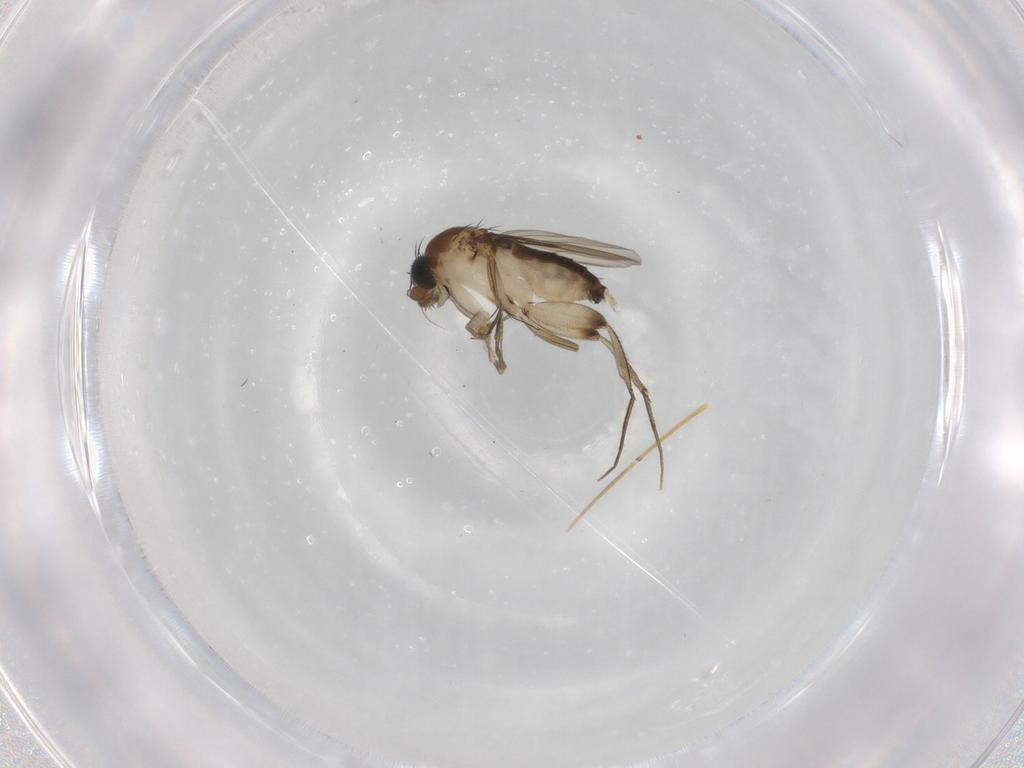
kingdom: Animalia
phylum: Arthropoda
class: Insecta
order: Diptera
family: Phoridae
